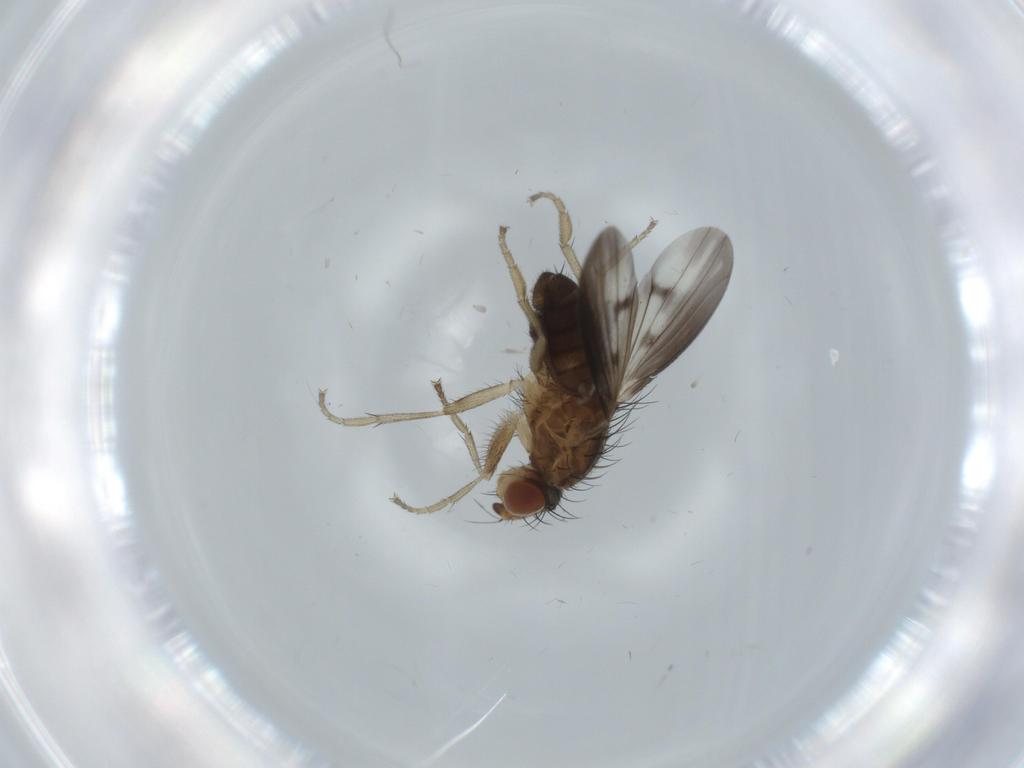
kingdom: Animalia
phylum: Arthropoda
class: Insecta
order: Diptera
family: Heleomyzidae
